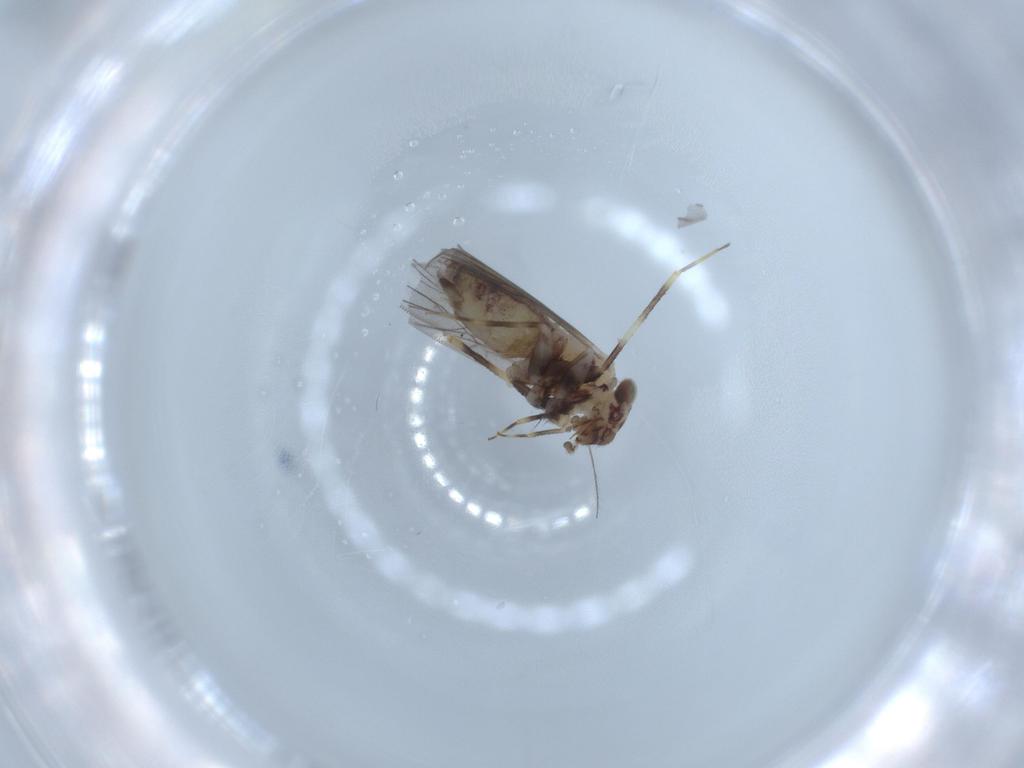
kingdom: Animalia
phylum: Arthropoda
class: Insecta
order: Psocodea
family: Lepidopsocidae
